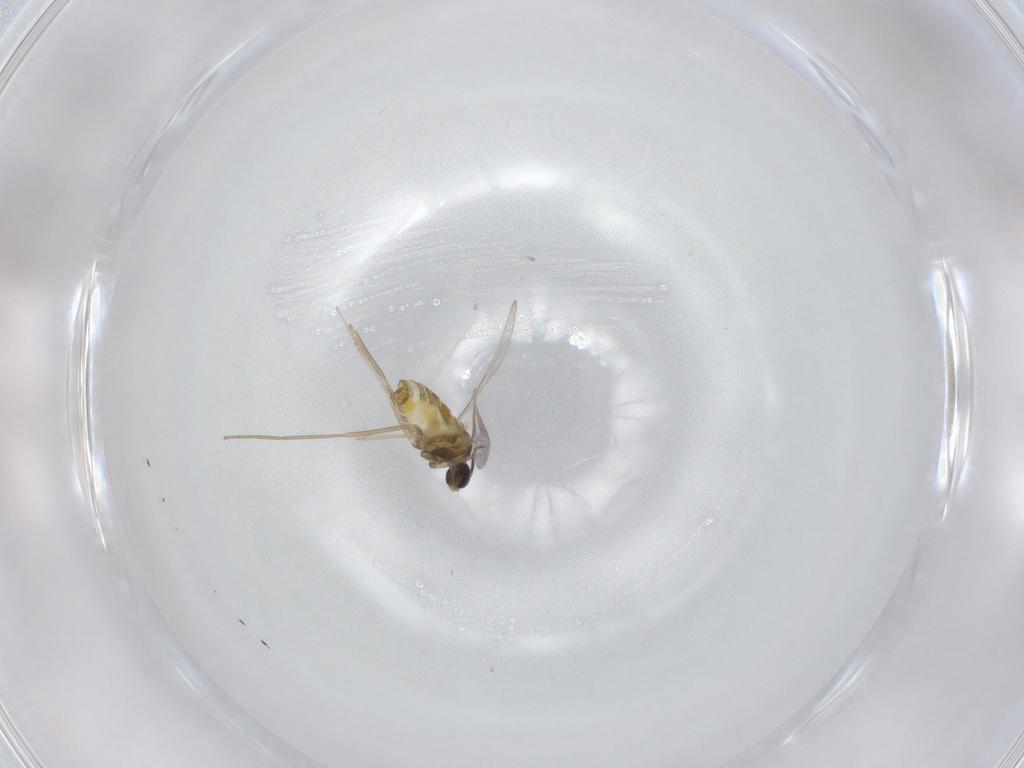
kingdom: Animalia
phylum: Arthropoda
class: Insecta
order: Diptera
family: Cecidomyiidae
